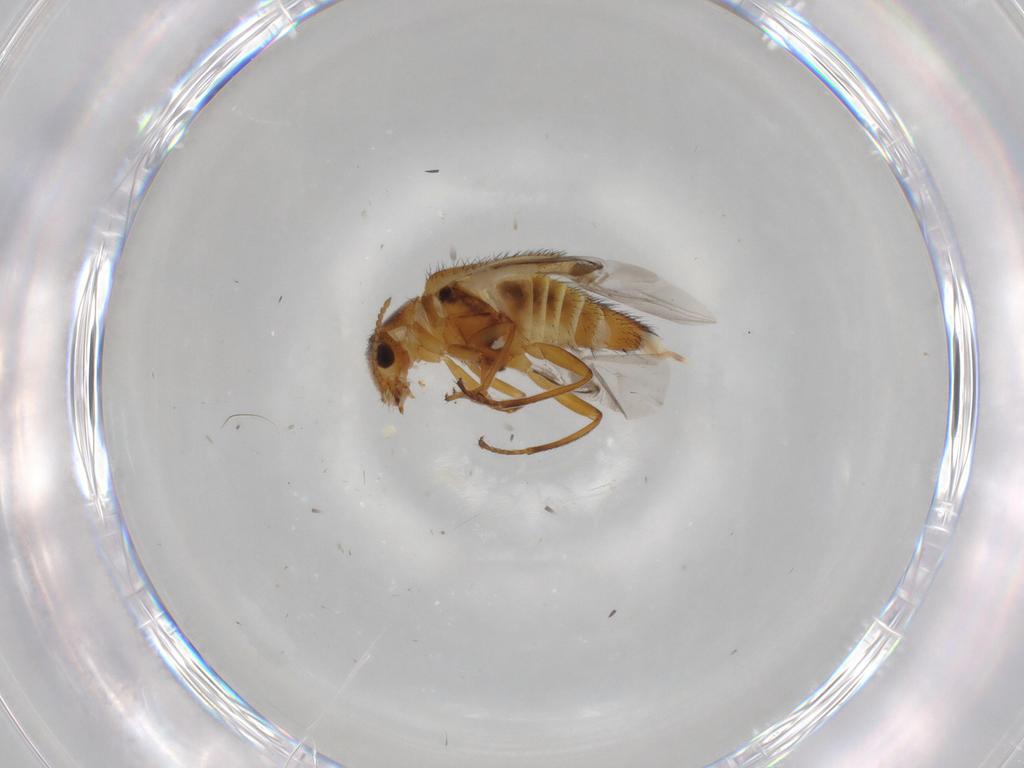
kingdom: Animalia
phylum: Arthropoda
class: Insecta
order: Coleoptera
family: Melyridae
